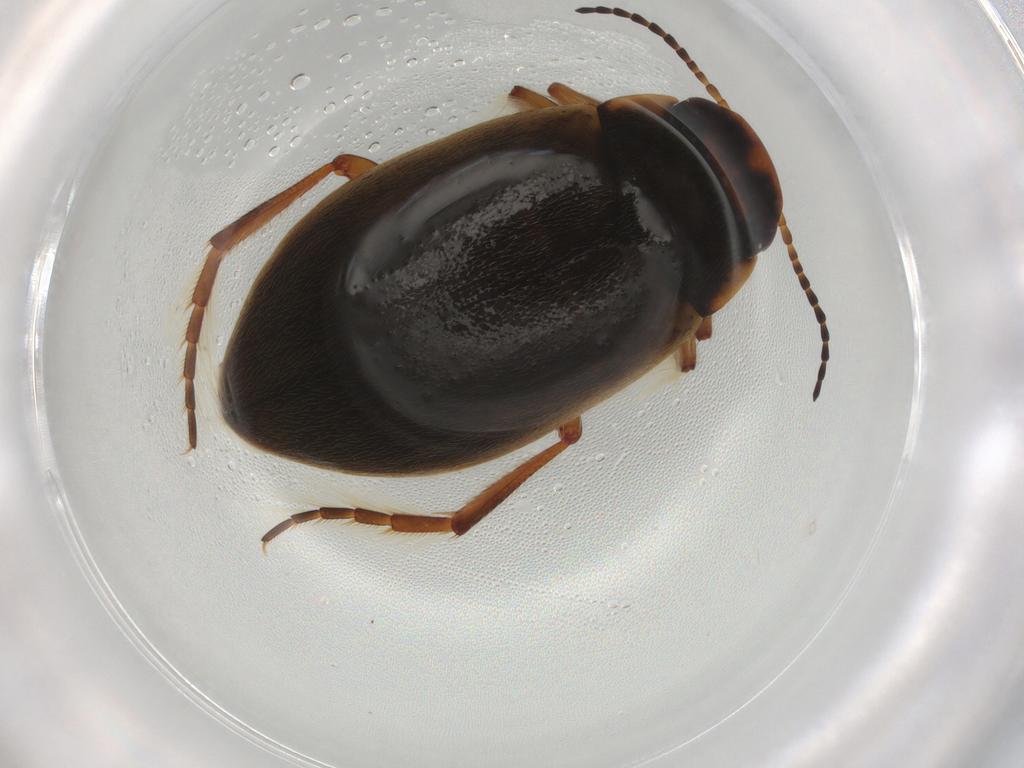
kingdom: Animalia
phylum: Arthropoda
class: Insecta
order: Coleoptera
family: Dytiscidae
